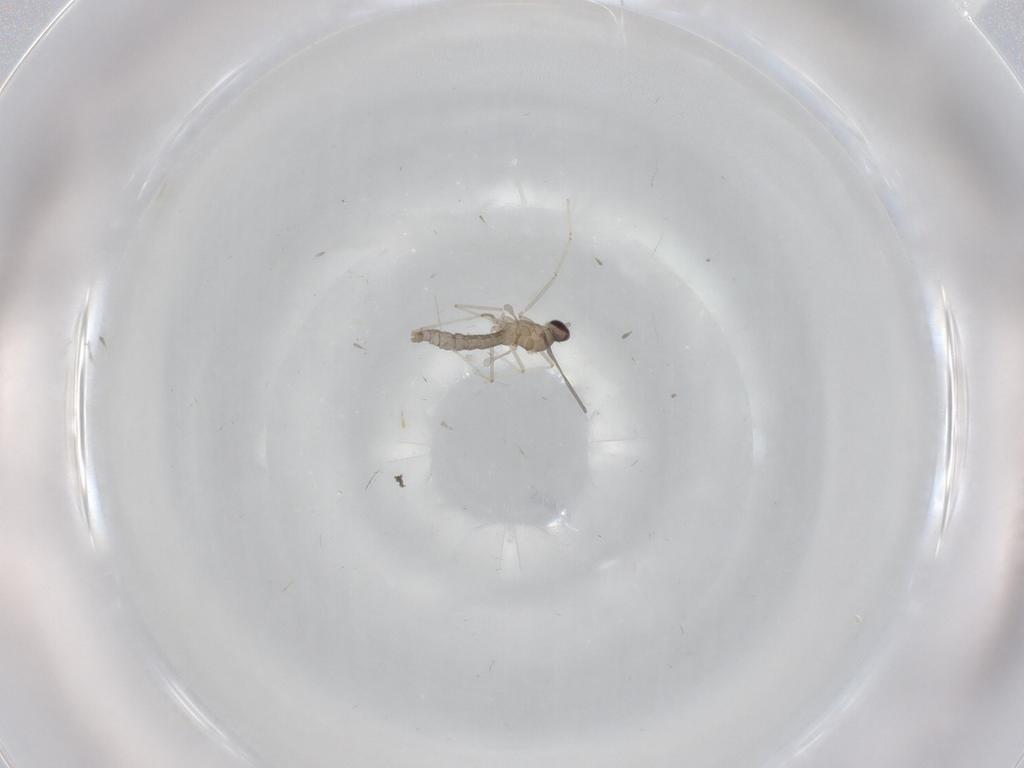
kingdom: Animalia
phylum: Arthropoda
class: Insecta
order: Diptera
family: Cecidomyiidae
